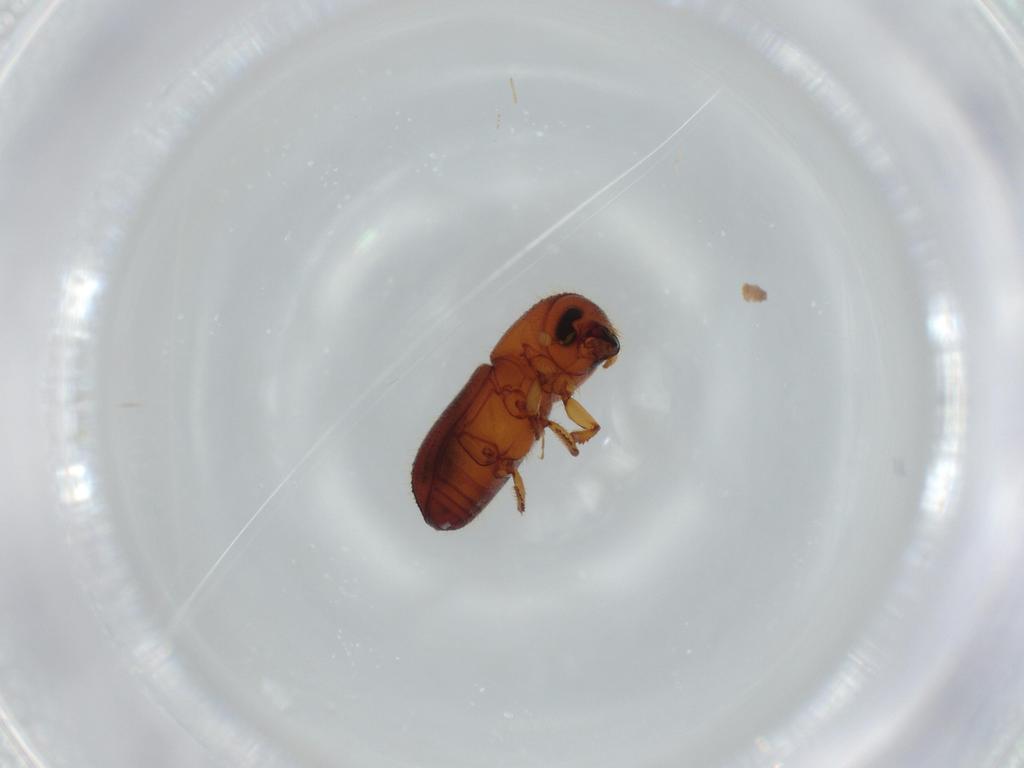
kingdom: Animalia
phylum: Arthropoda
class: Insecta
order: Coleoptera
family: Curculionidae
